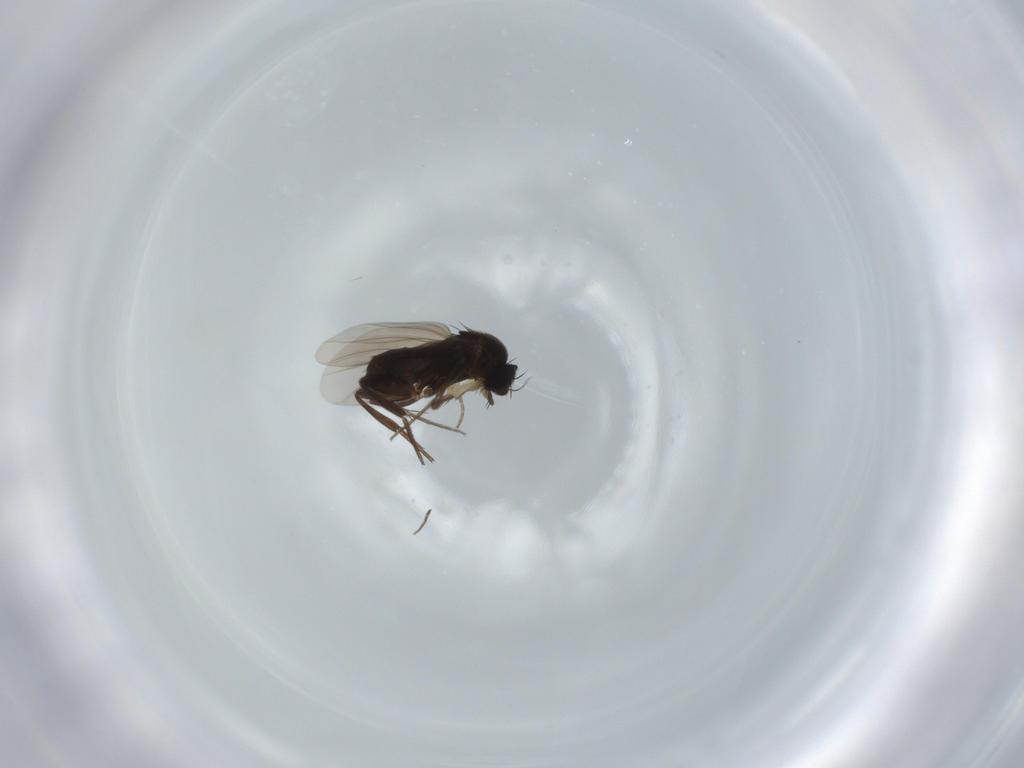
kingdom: Animalia
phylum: Arthropoda
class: Insecta
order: Diptera
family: Phoridae
